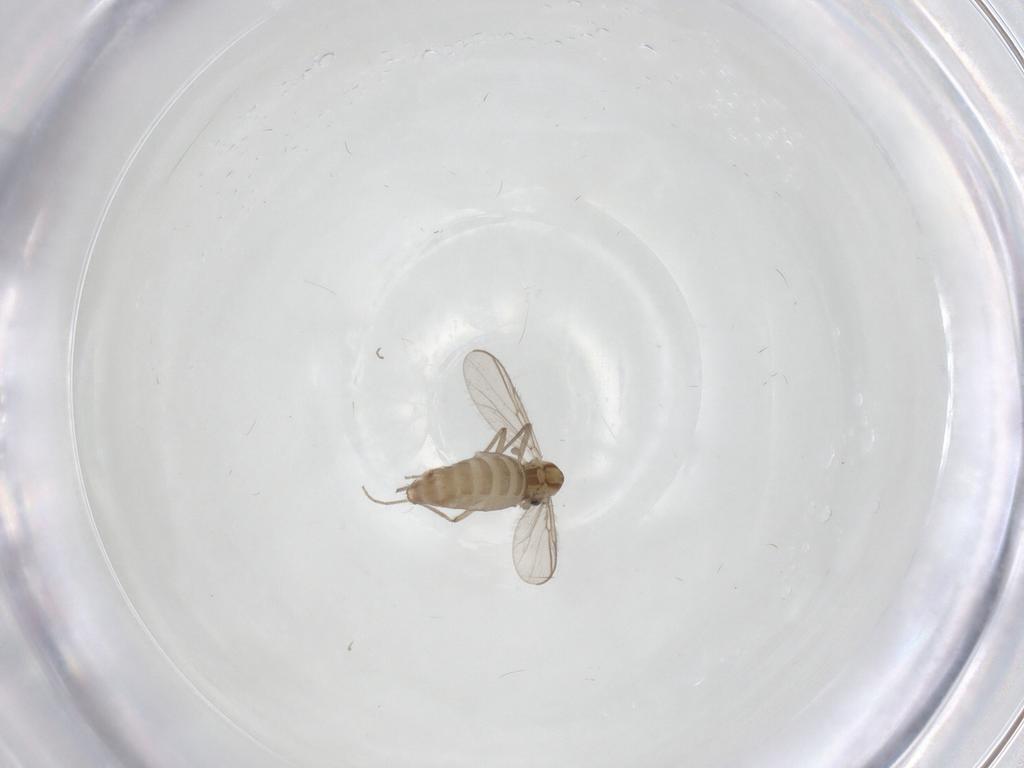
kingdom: Animalia
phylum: Arthropoda
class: Insecta
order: Diptera
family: Chironomidae
